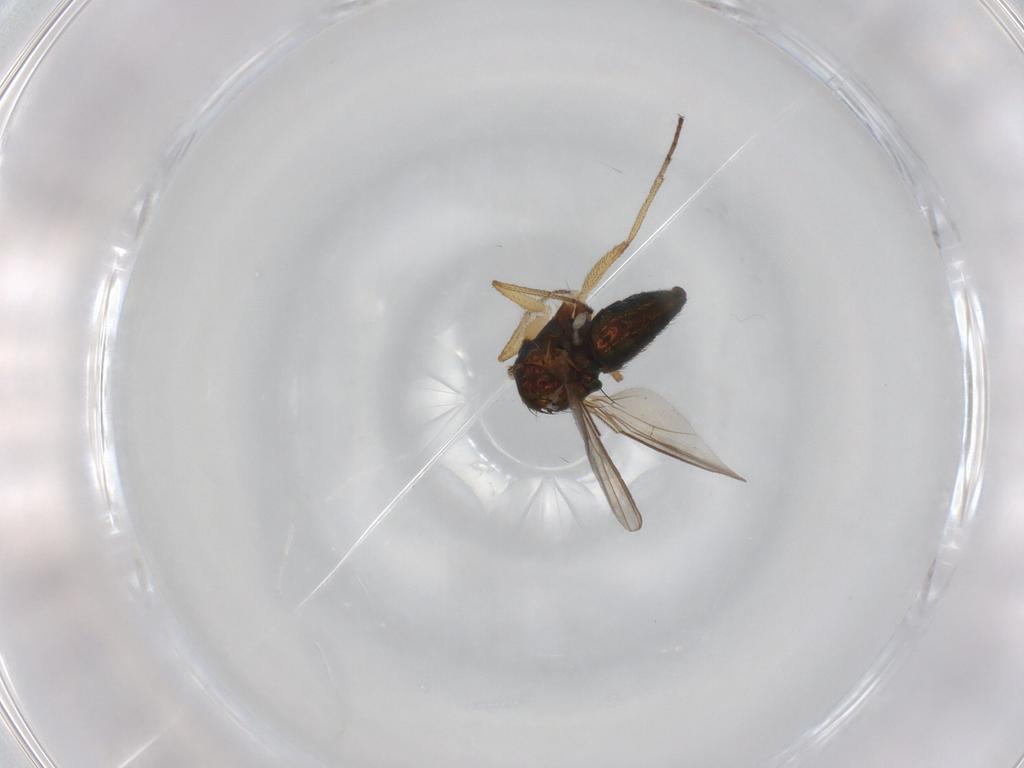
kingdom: Animalia
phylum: Arthropoda
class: Insecta
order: Diptera
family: Dolichopodidae
